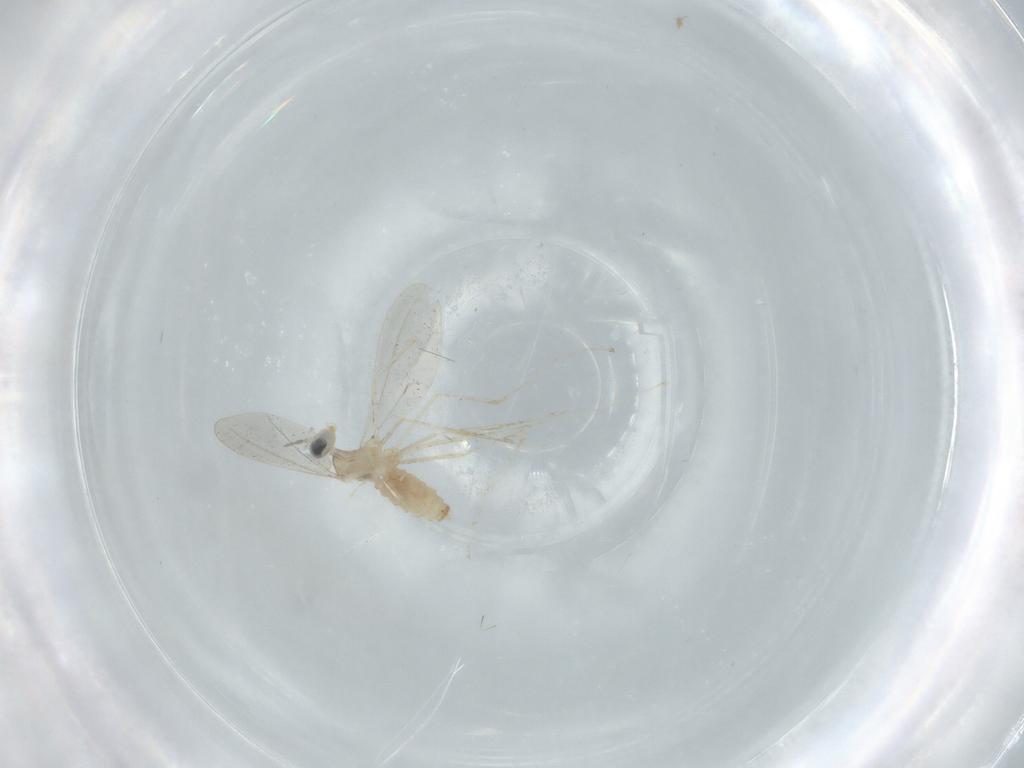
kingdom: Animalia
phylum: Arthropoda
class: Insecta
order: Diptera
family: Cecidomyiidae
